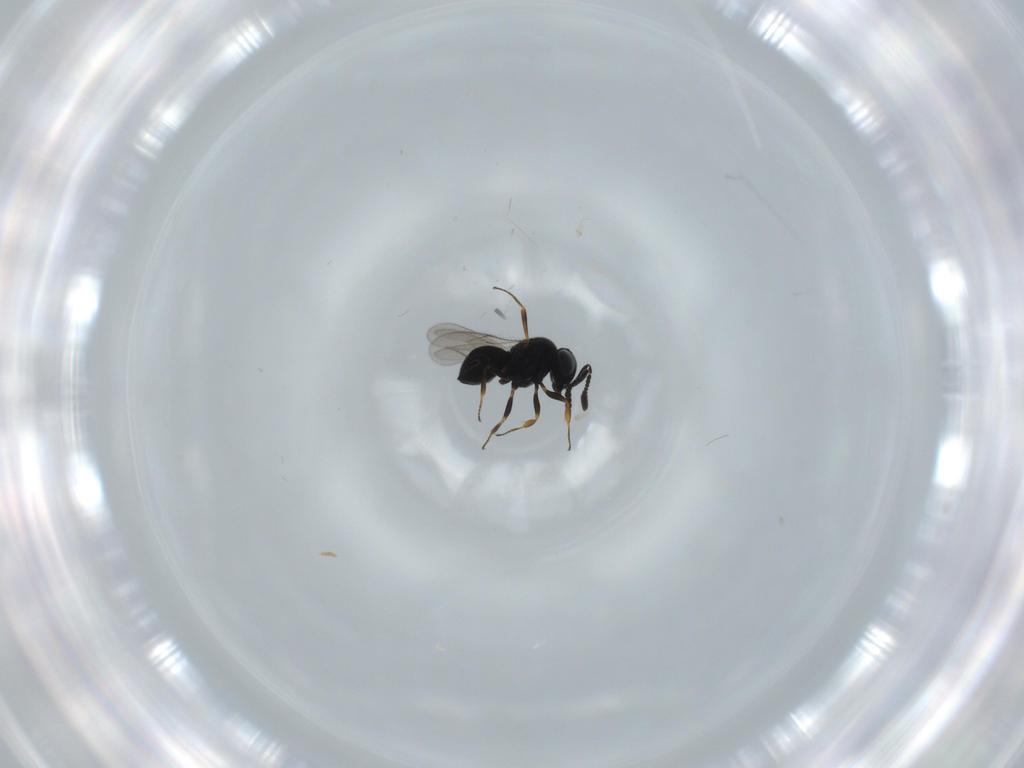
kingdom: Animalia
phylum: Arthropoda
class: Insecta
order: Hymenoptera
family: Scelionidae
